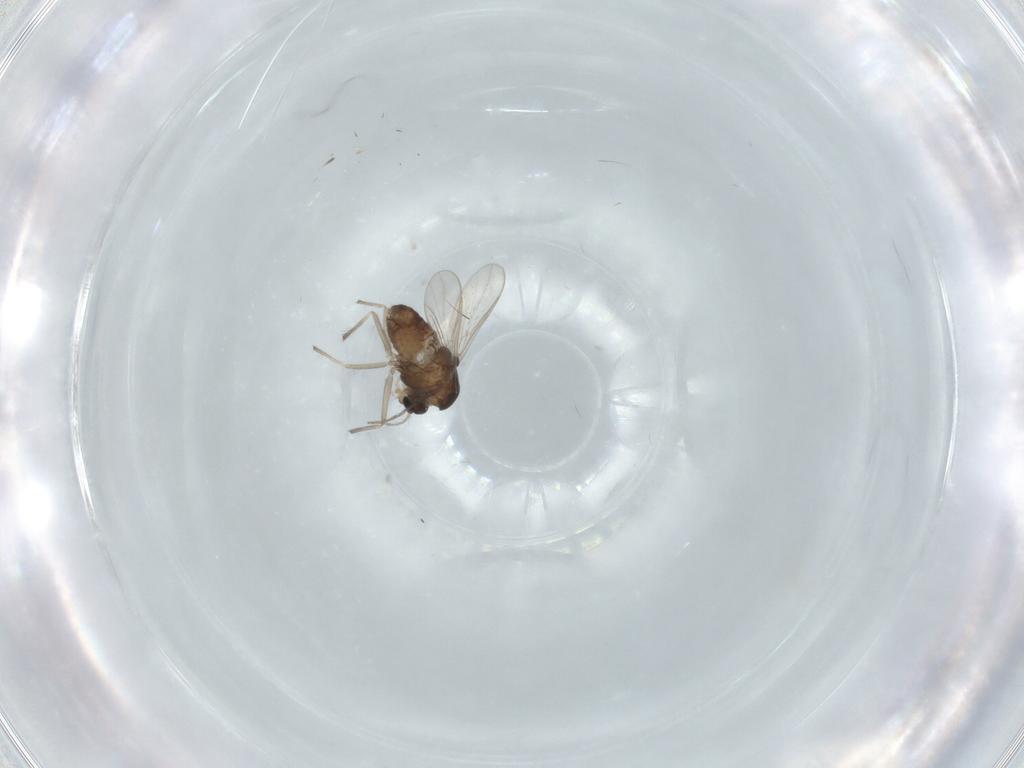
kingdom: Animalia
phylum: Arthropoda
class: Insecta
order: Diptera
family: Chironomidae
